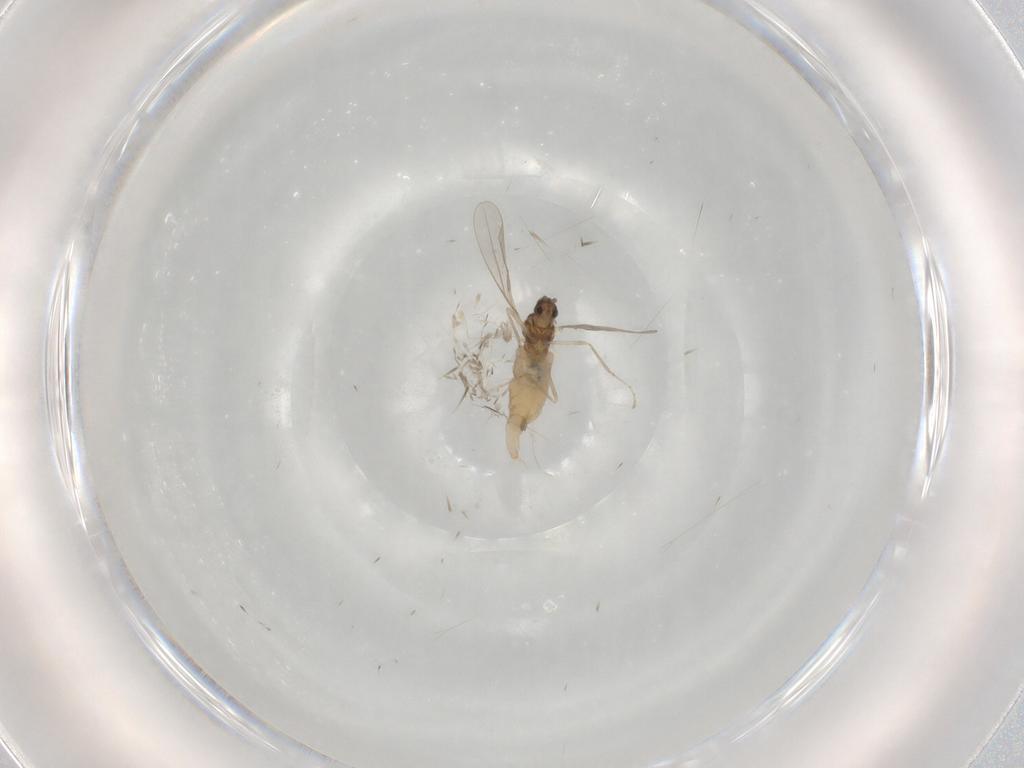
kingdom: Animalia
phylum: Arthropoda
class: Insecta
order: Diptera
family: Cecidomyiidae
